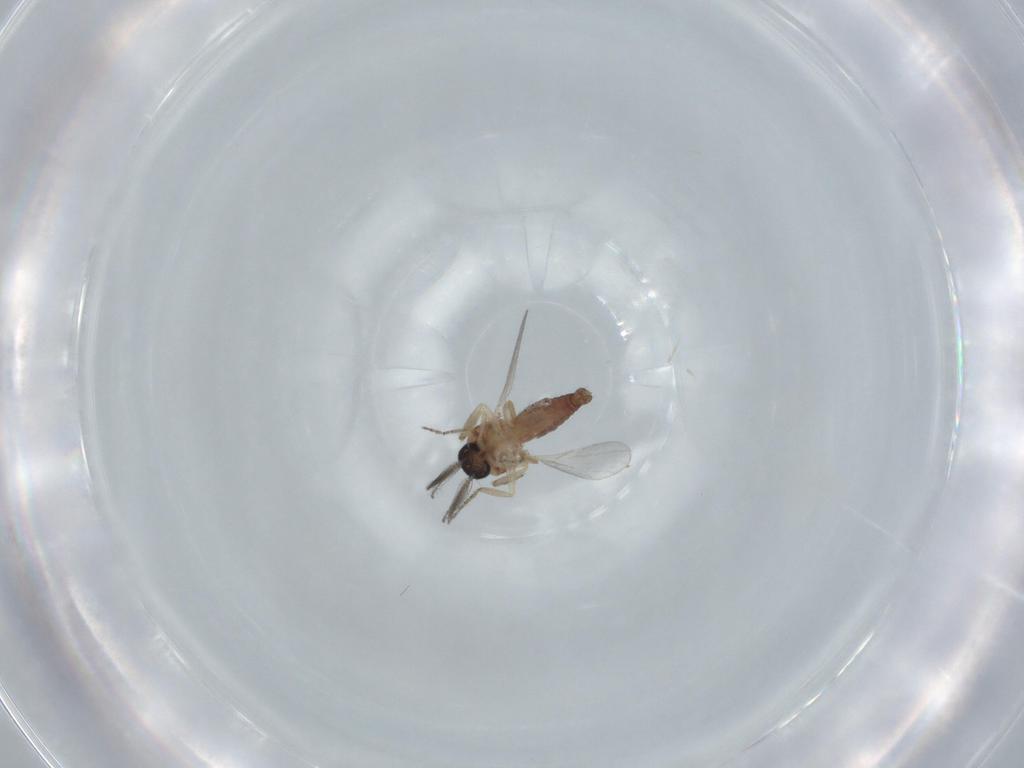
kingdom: Animalia
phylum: Arthropoda
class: Insecta
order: Diptera
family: Ceratopogonidae
